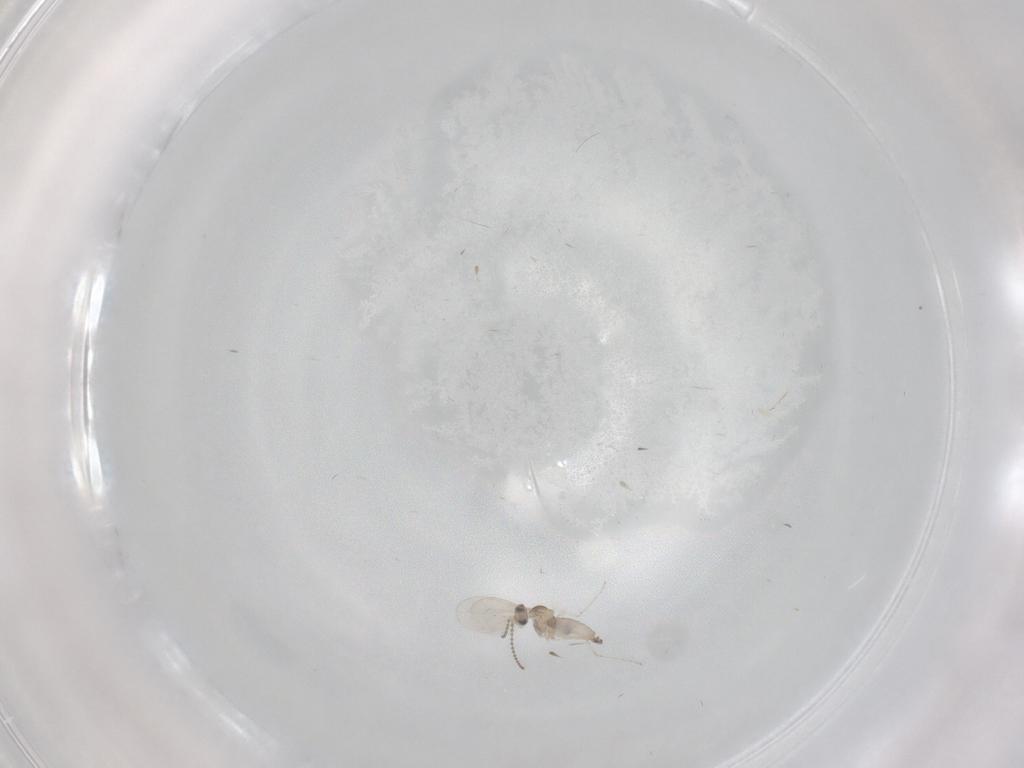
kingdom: Animalia
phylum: Arthropoda
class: Insecta
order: Diptera
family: Cecidomyiidae
